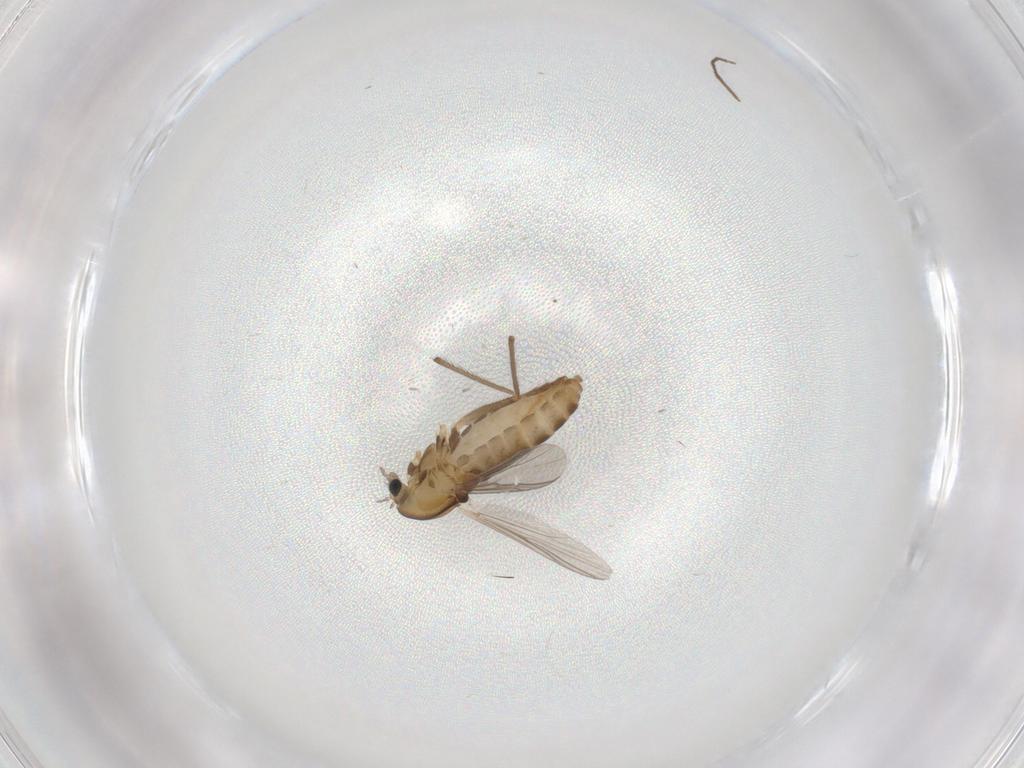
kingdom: Animalia
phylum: Arthropoda
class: Insecta
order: Diptera
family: Chironomidae
